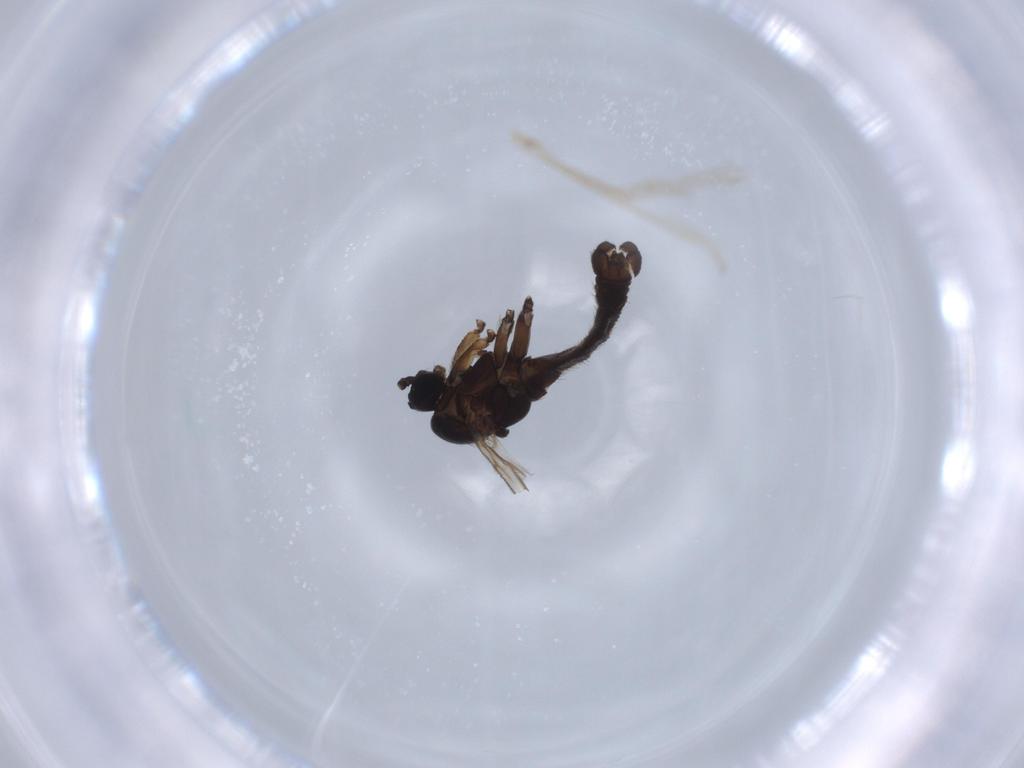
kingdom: Animalia
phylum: Arthropoda
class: Insecta
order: Diptera
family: Sciaridae
